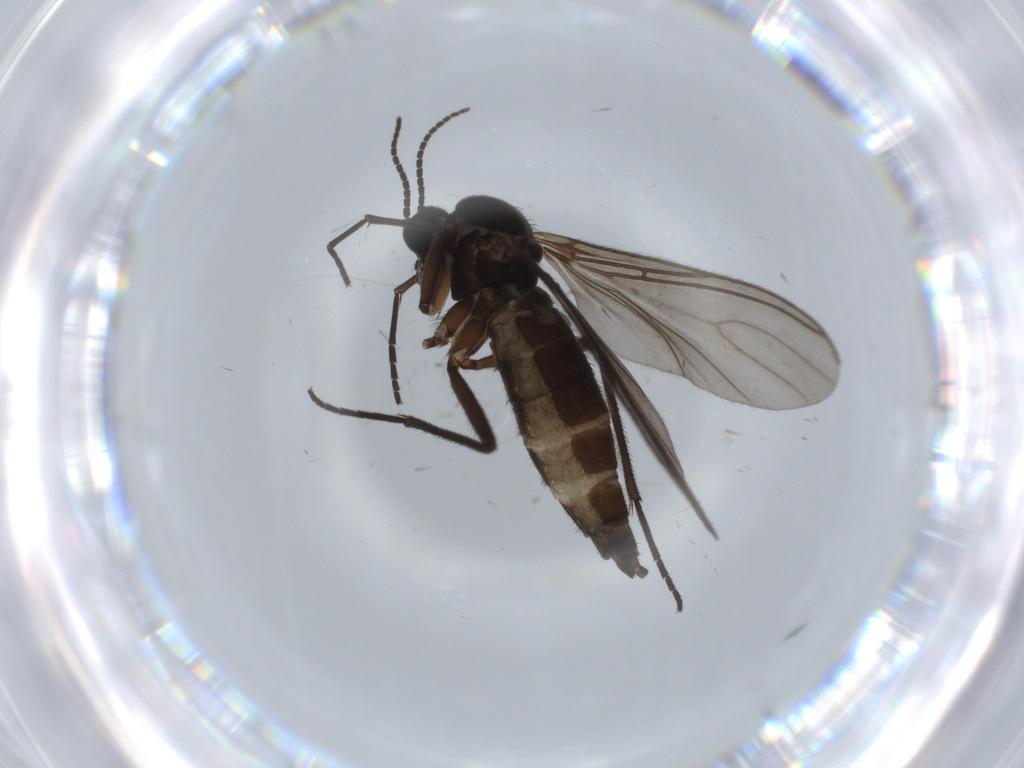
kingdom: Animalia
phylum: Arthropoda
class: Insecta
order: Diptera
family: Sciaridae
